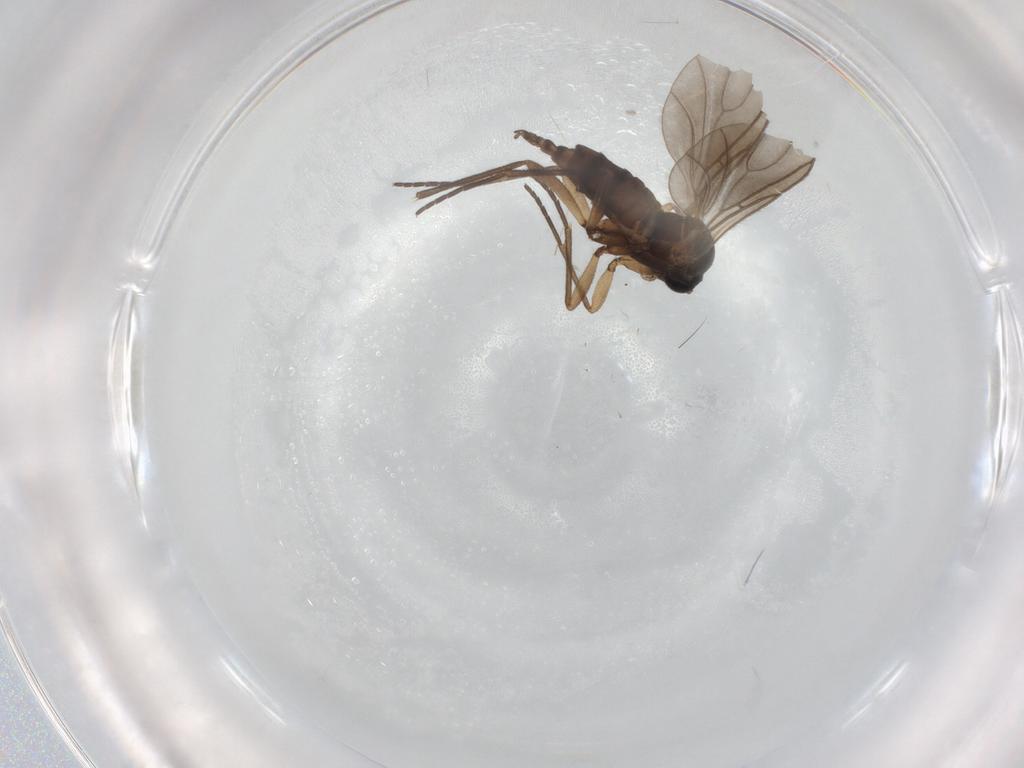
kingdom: Animalia
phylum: Arthropoda
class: Insecta
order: Diptera
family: Sciaridae
